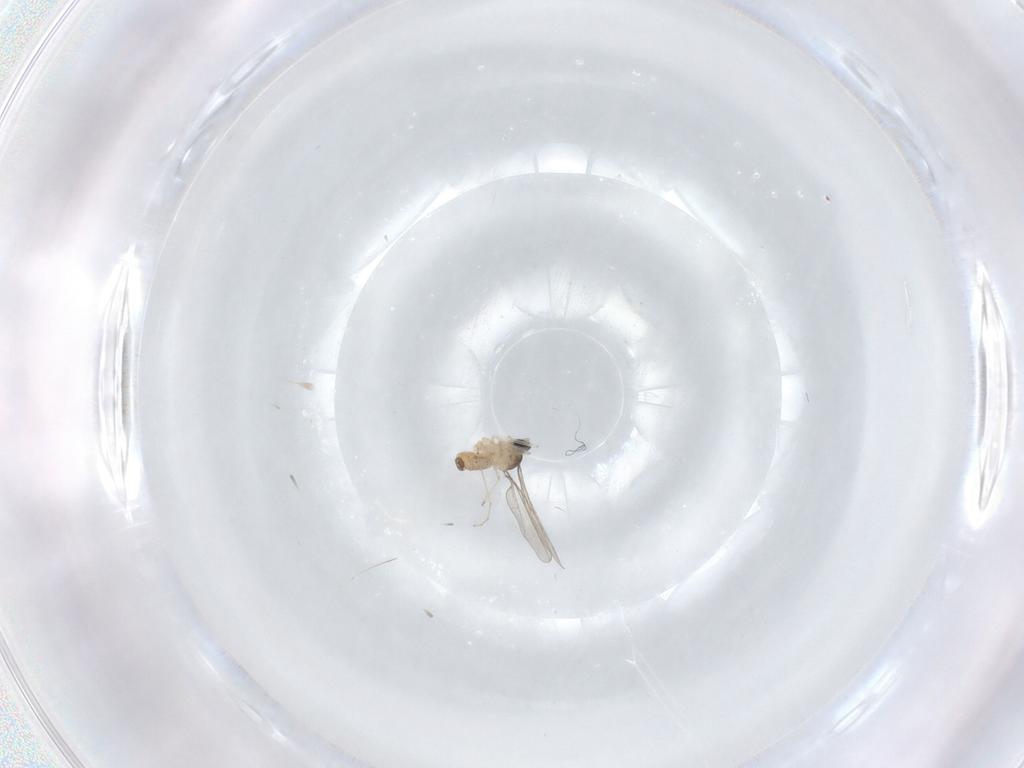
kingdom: Animalia
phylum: Arthropoda
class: Insecta
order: Diptera
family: Cecidomyiidae
